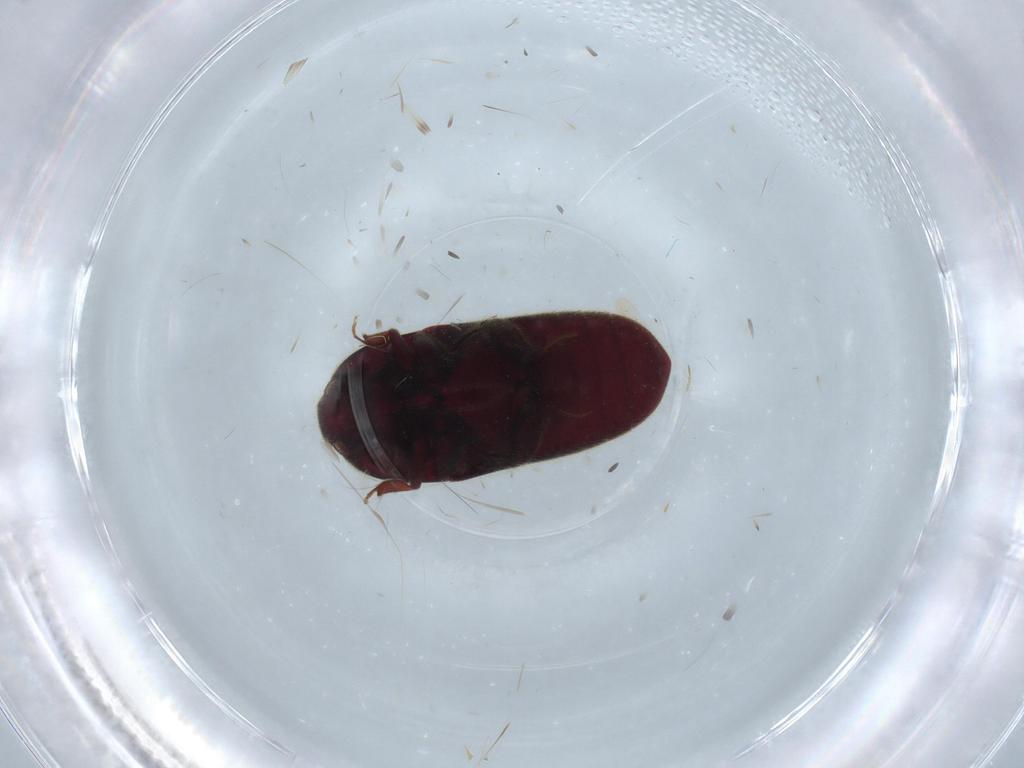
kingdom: Animalia
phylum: Arthropoda
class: Insecta
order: Coleoptera
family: Throscidae
